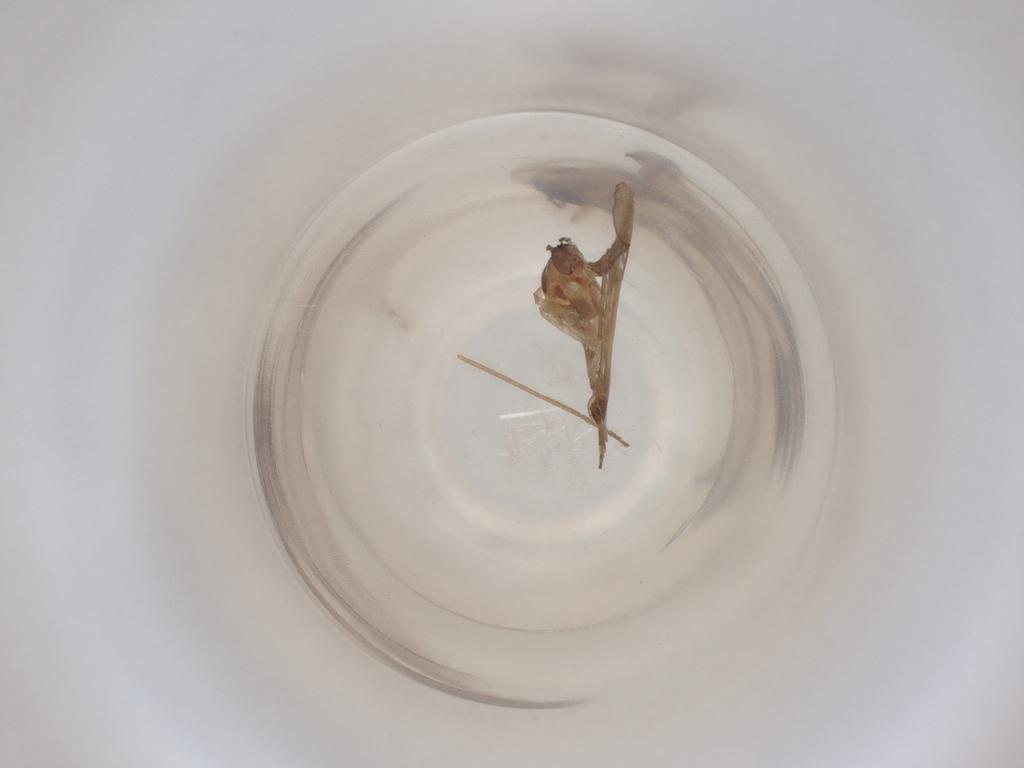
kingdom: Animalia
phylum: Arthropoda
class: Insecta
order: Diptera
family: Cecidomyiidae
